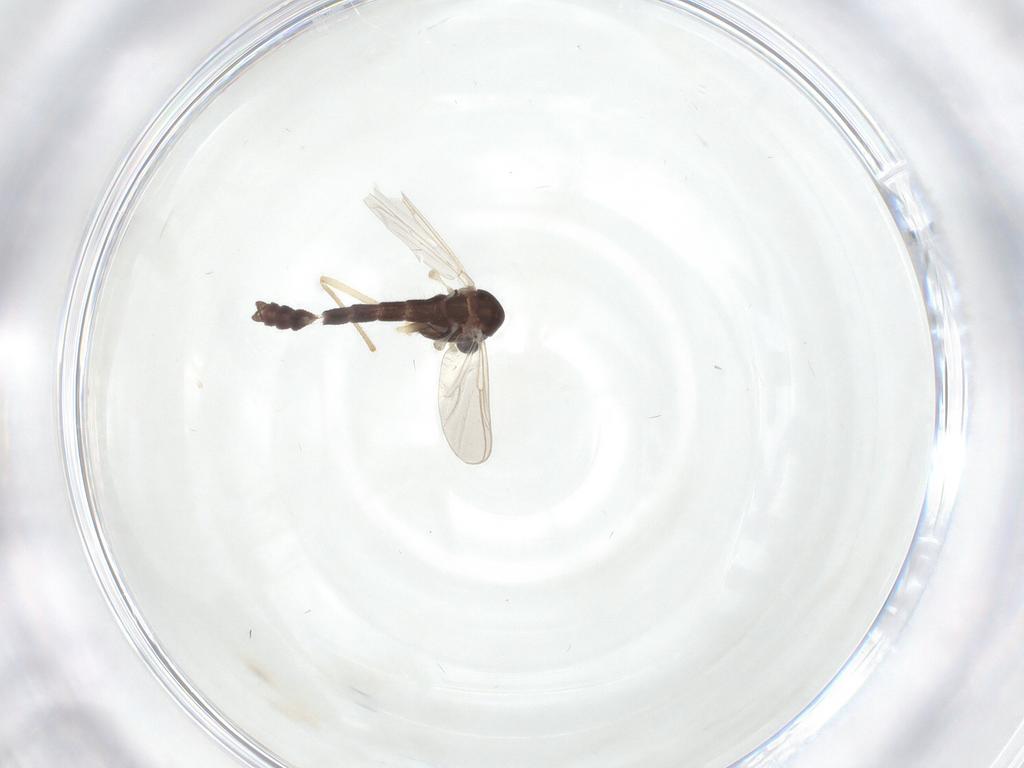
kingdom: Animalia
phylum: Arthropoda
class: Insecta
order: Diptera
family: Chironomidae
